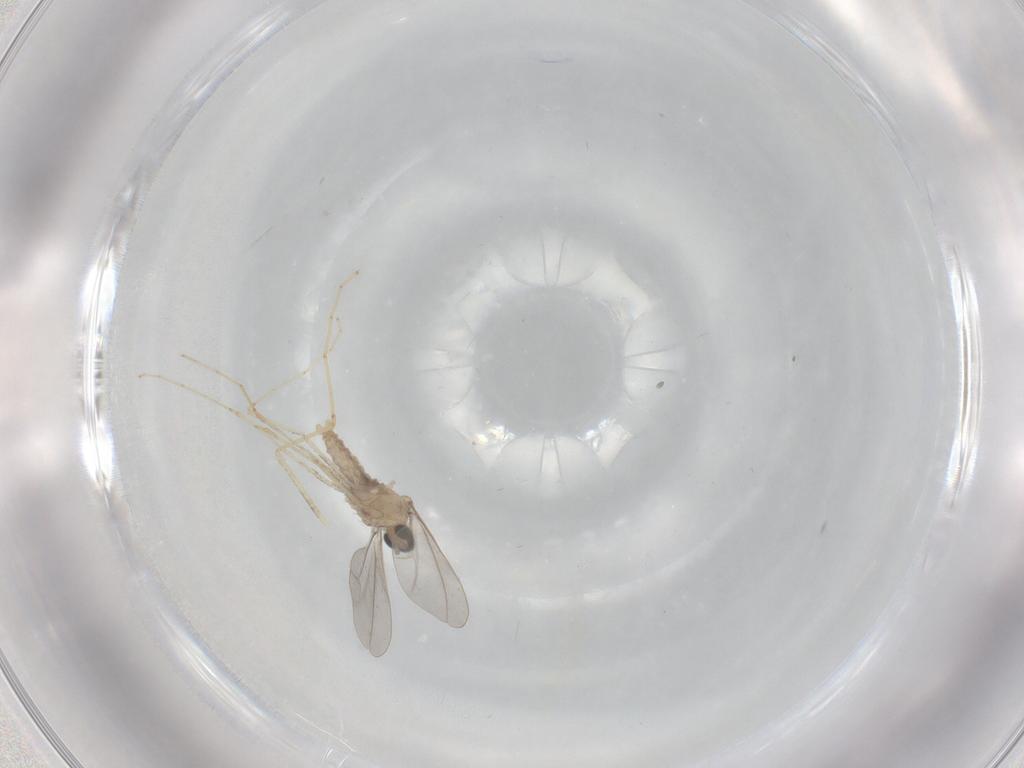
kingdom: Animalia
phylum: Arthropoda
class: Insecta
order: Diptera
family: Cecidomyiidae
